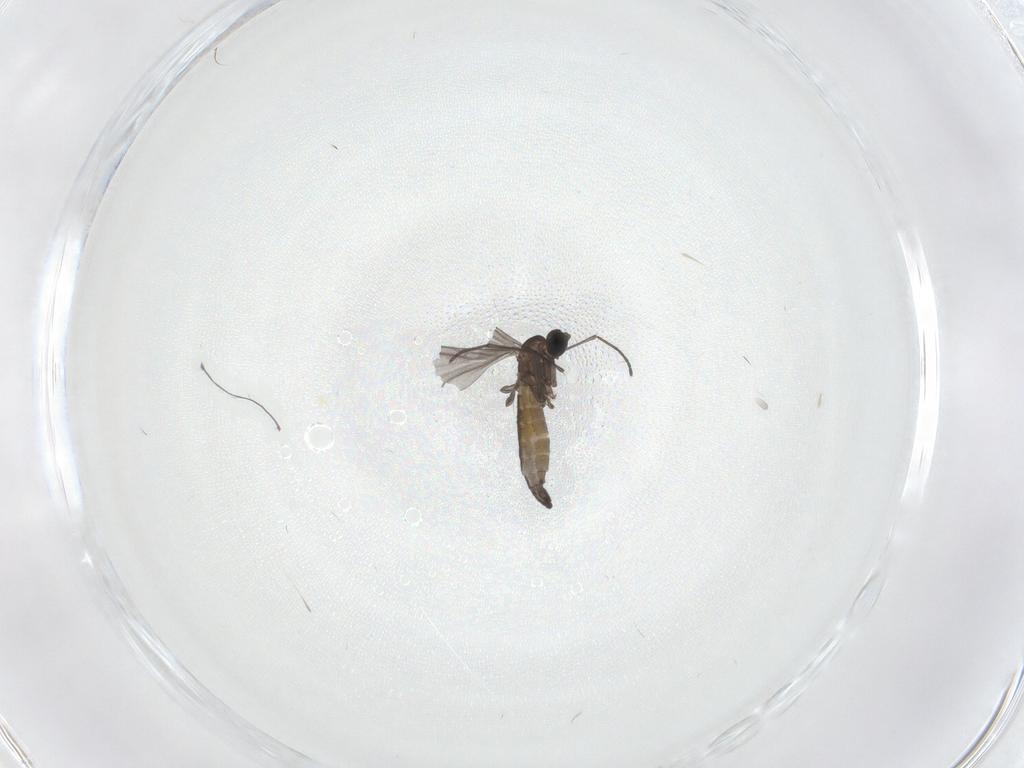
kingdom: Animalia
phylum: Arthropoda
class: Insecta
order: Diptera
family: Sciaridae
